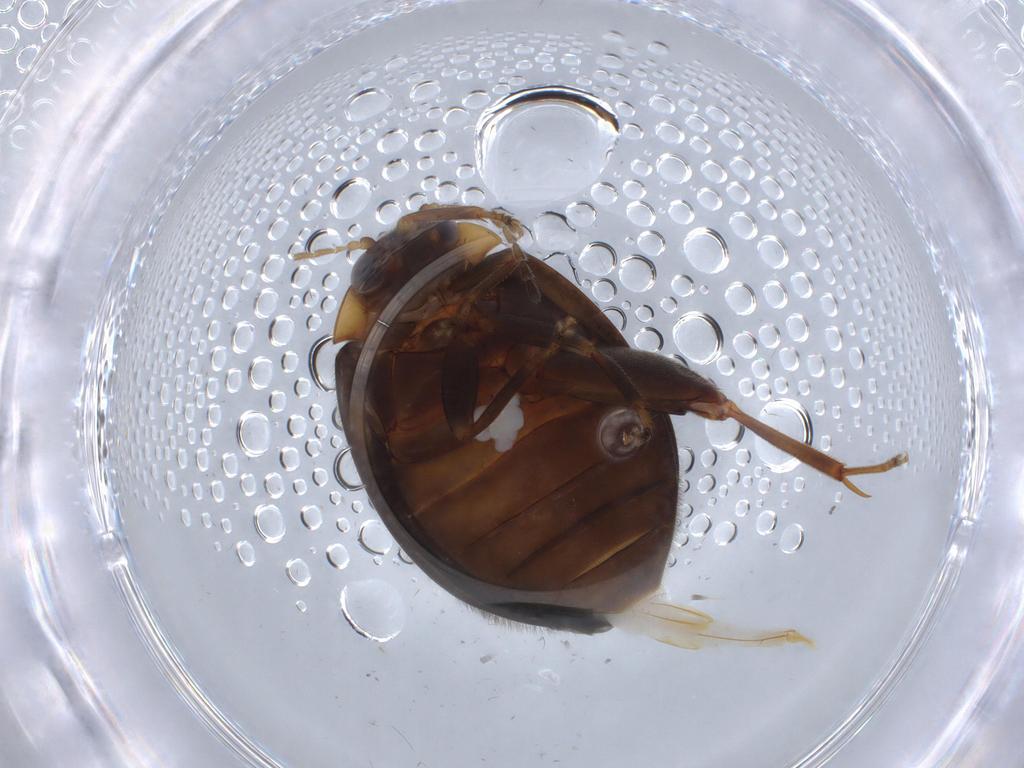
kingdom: Animalia
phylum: Arthropoda
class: Insecta
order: Coleoptera
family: Scirtidae
